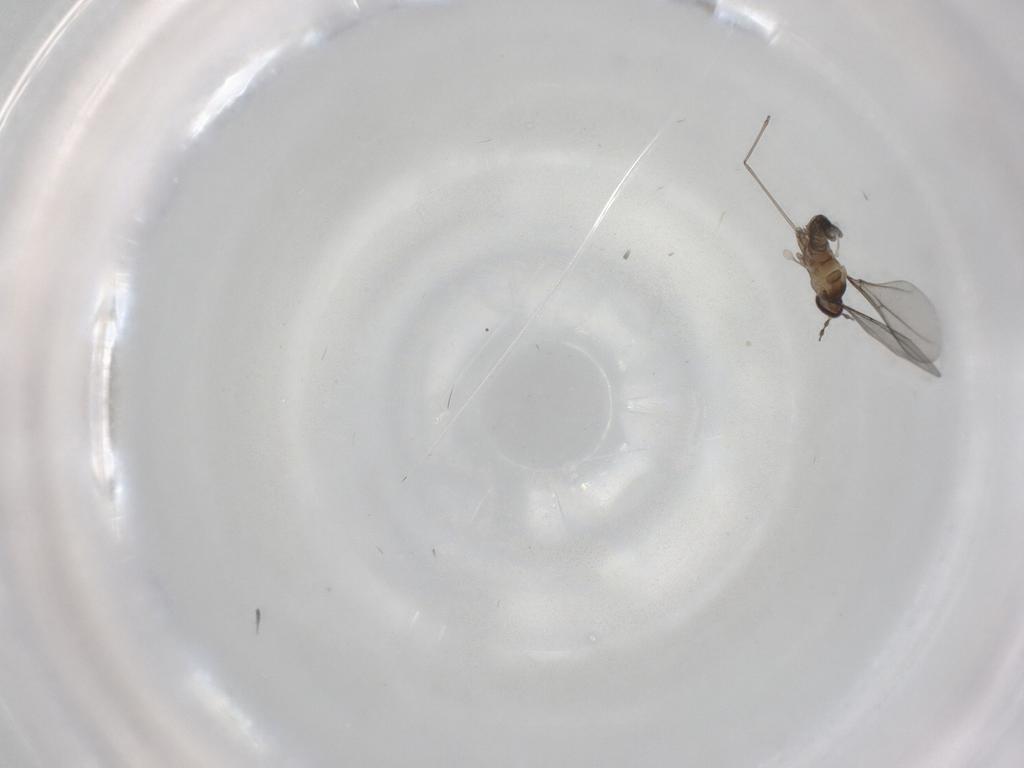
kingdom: Animalia
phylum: Arthropoda
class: Insecta
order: Diptera
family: Cecidomyiidae
